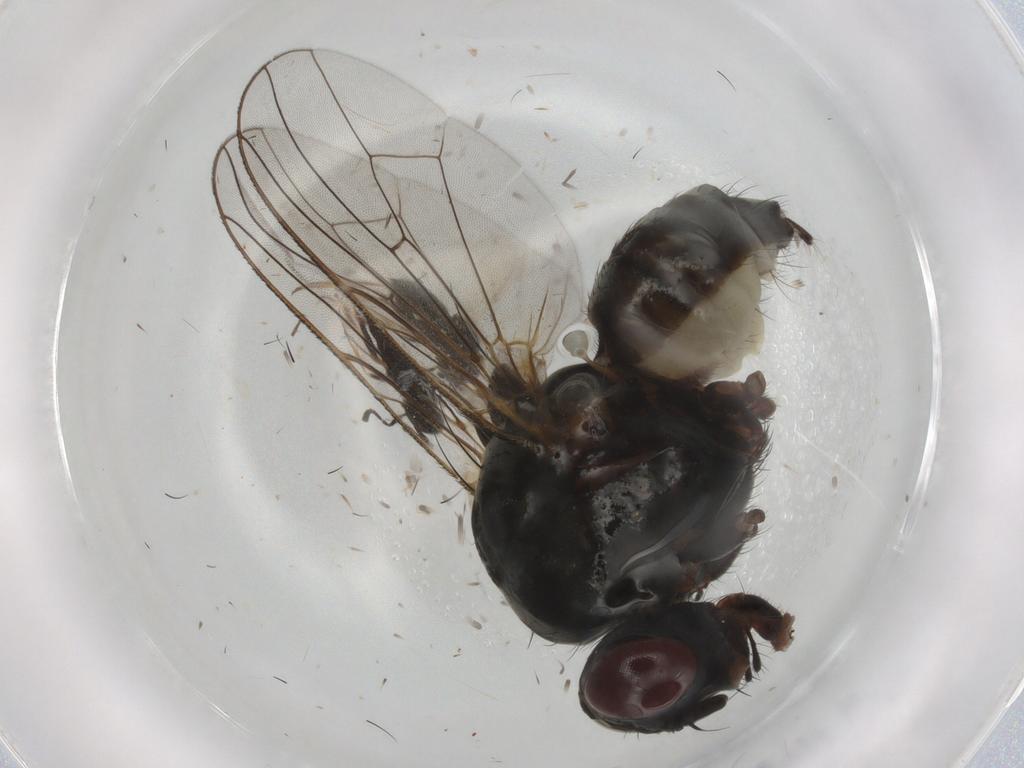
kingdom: Animalia
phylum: Arthropoda
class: Insecta
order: Diptera
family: Anthomyiidae
